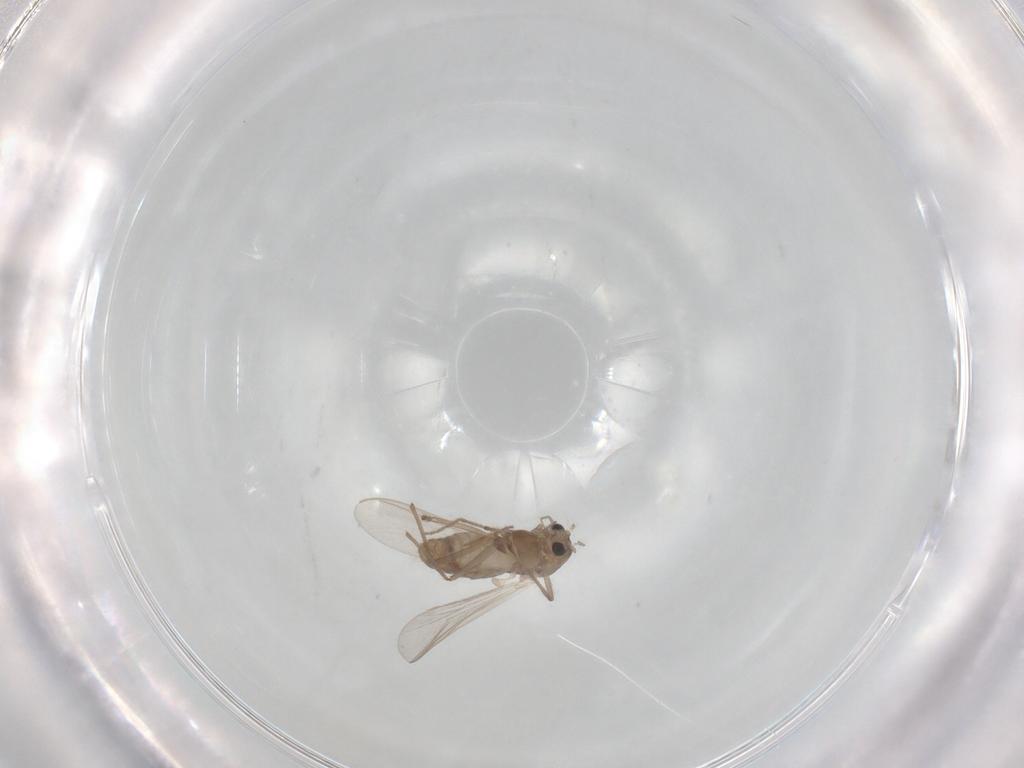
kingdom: Animalia
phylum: Arthropoda
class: Insecta
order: Diptera
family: Chironomidae
